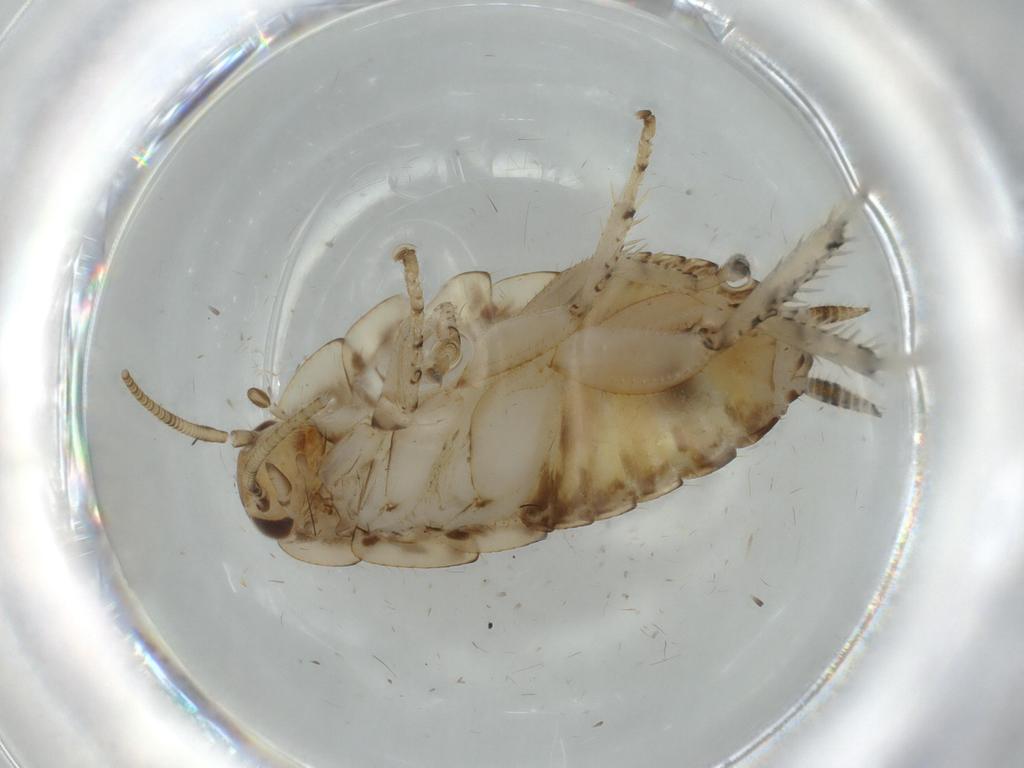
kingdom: Animalia
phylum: Arthropoda
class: Insecta
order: Blattodea
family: Ectobiidae
